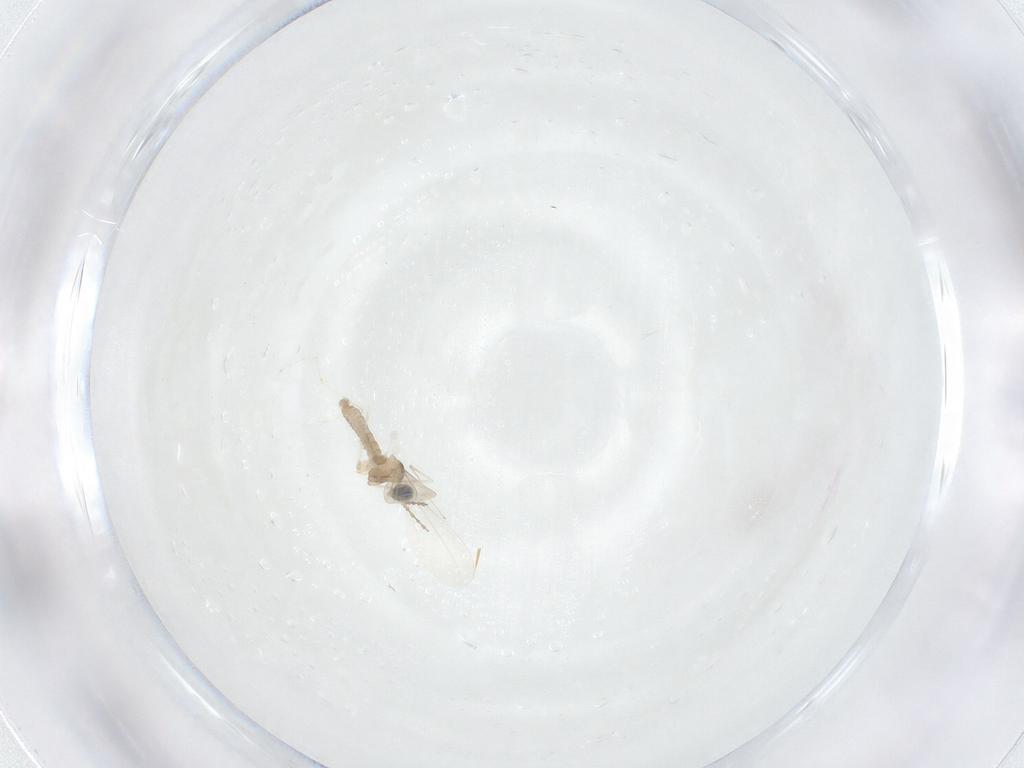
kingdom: Animalia
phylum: Arthropoda
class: Insecta
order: Diptera
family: Cecidomyiidae
